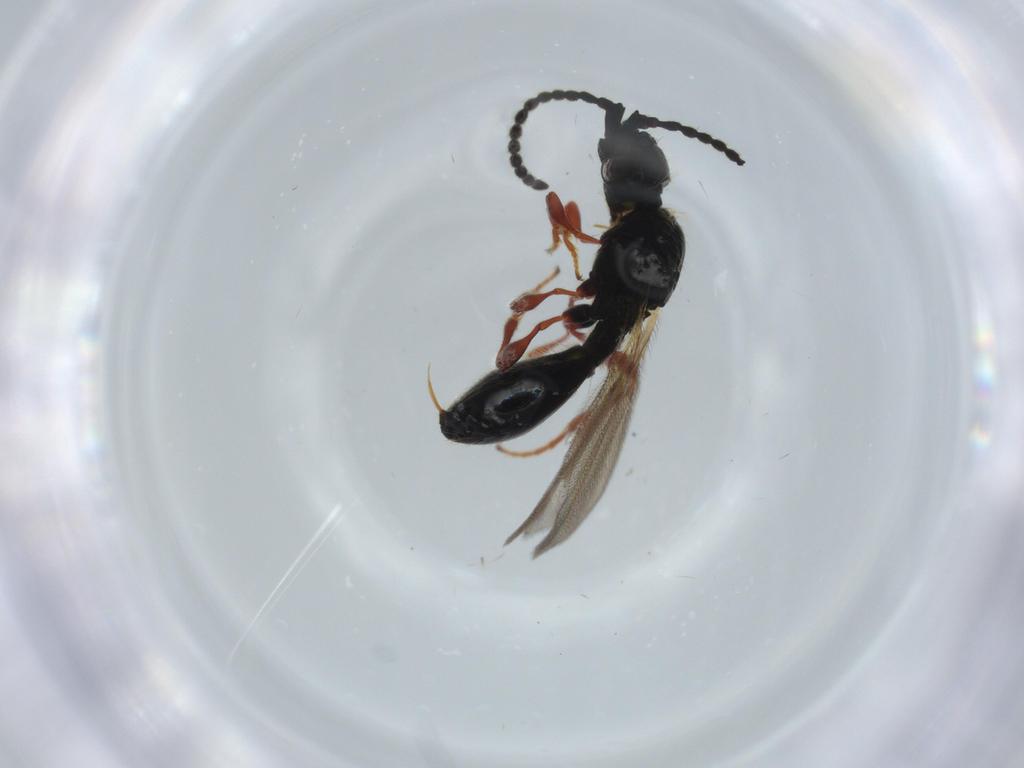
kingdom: Animalia
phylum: Arthropoda
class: Insecta
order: Hymenoptera
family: Diapriidae
